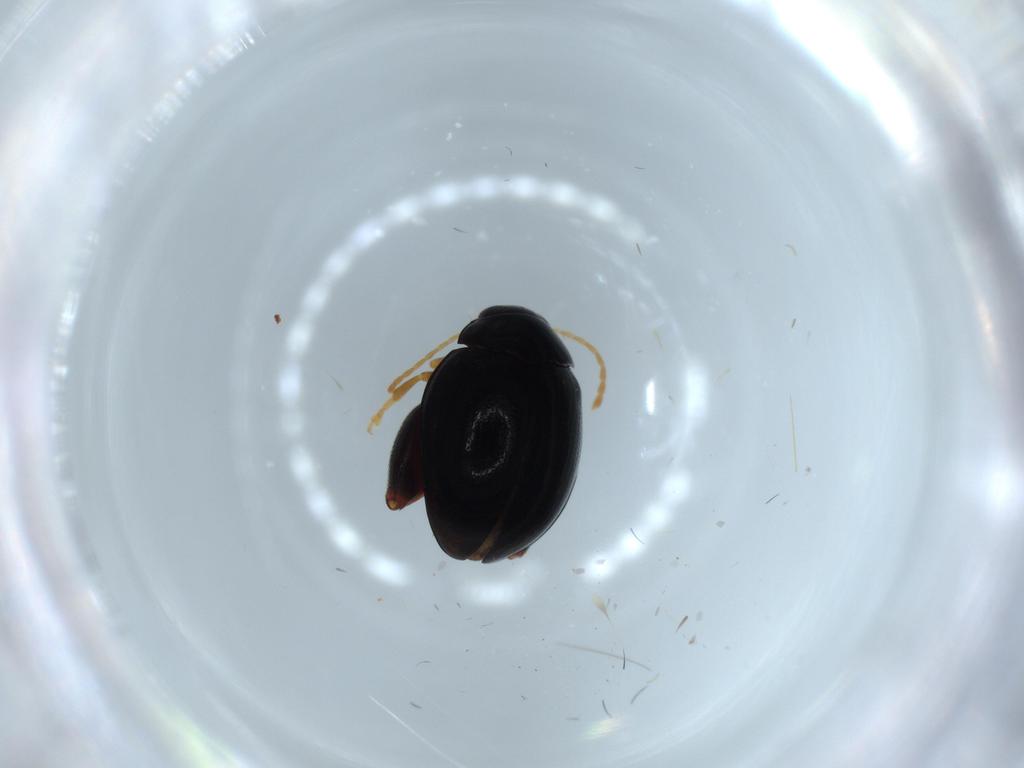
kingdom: Animalia
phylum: Arthropoda
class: Insecta
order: Coleoptera
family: Chrysomelidae
